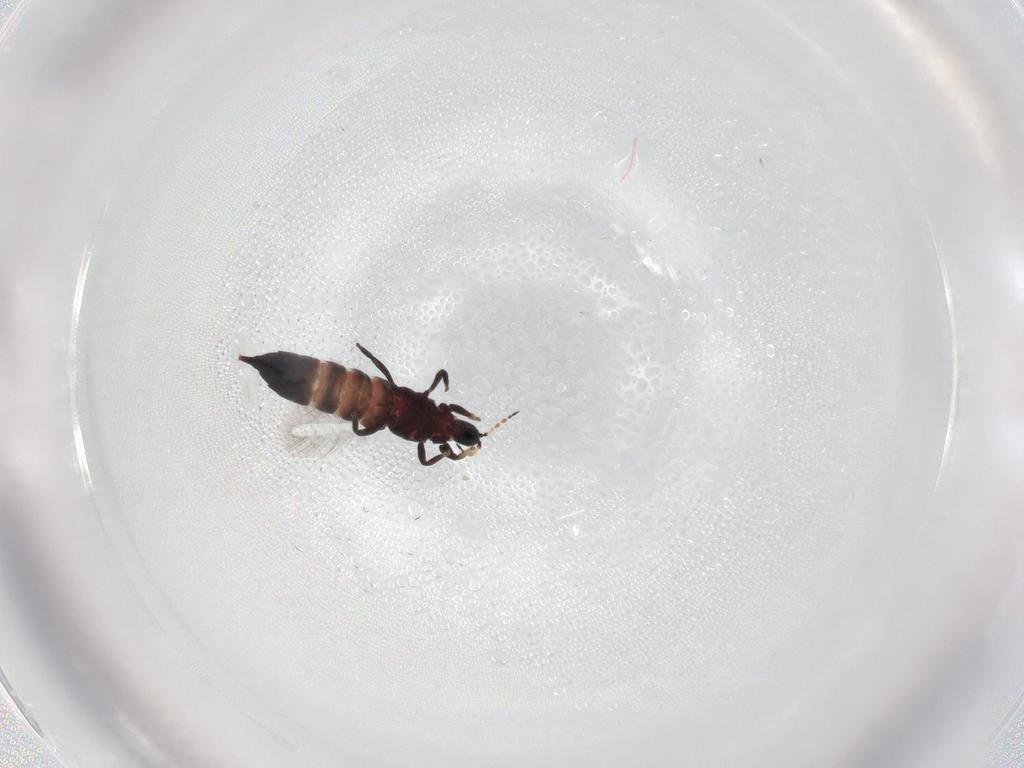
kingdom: Animalia
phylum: Arthropoda
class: Insecta
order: Thysanoptera
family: Phlaeothripidae
